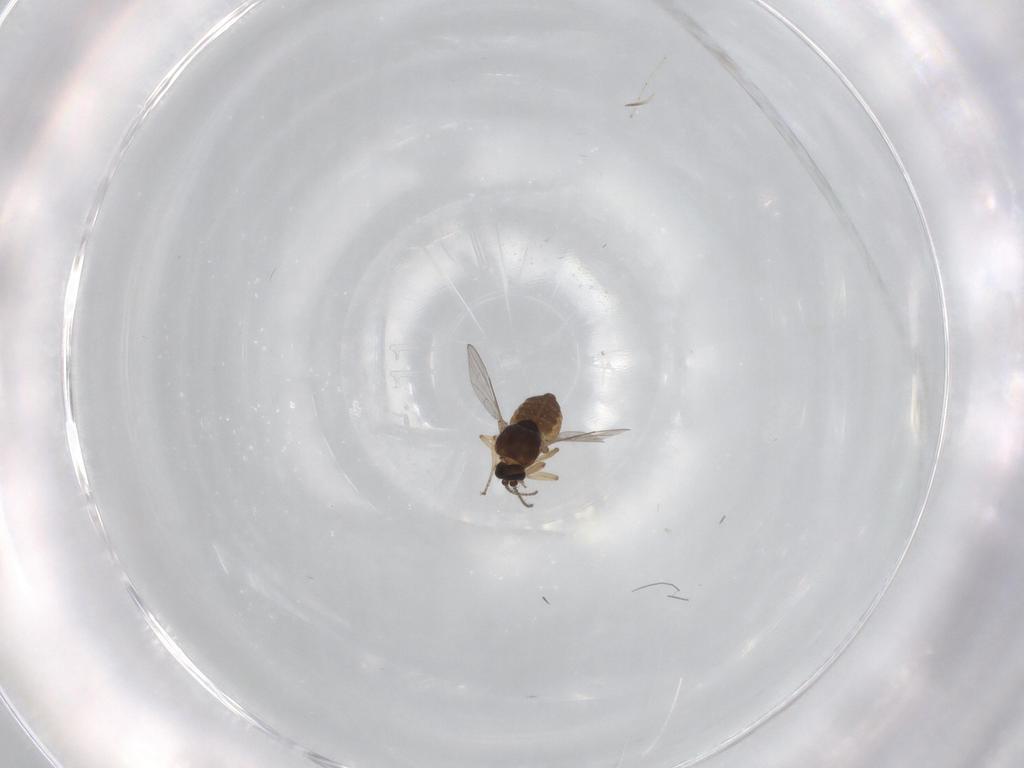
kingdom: Animalia
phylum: Arthropoda
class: Insecta
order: Diptera
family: Ceratopogonidae
